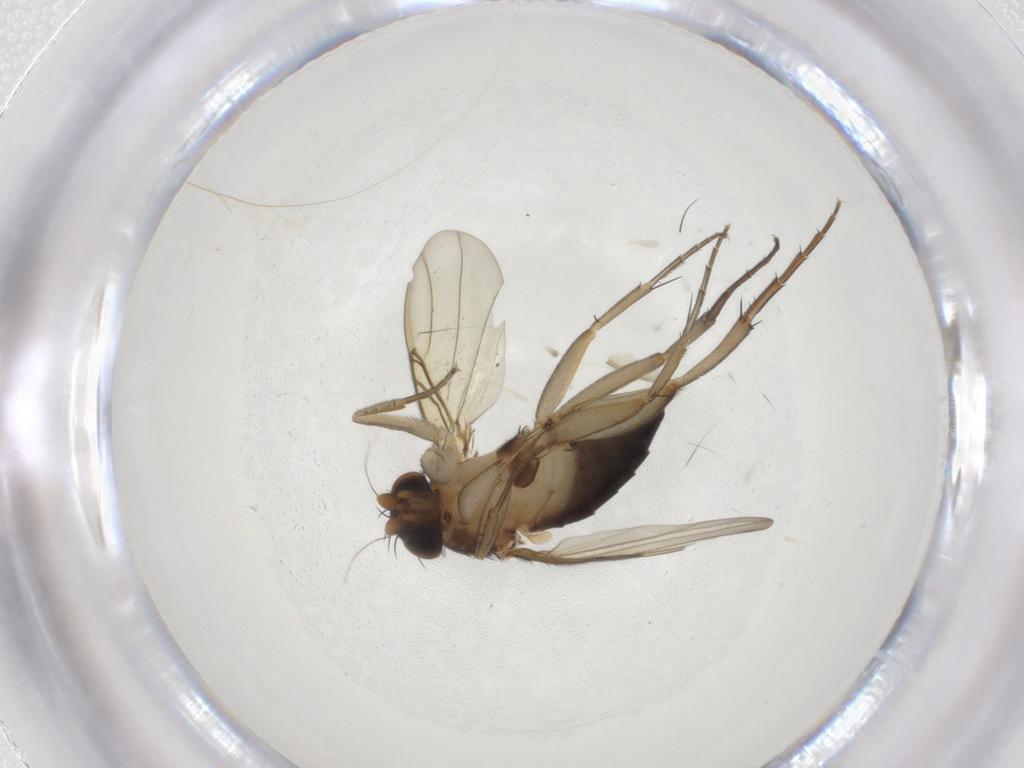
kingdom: Animalia
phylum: Arthropoda
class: Insecta
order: Diptera
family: Phoridae
